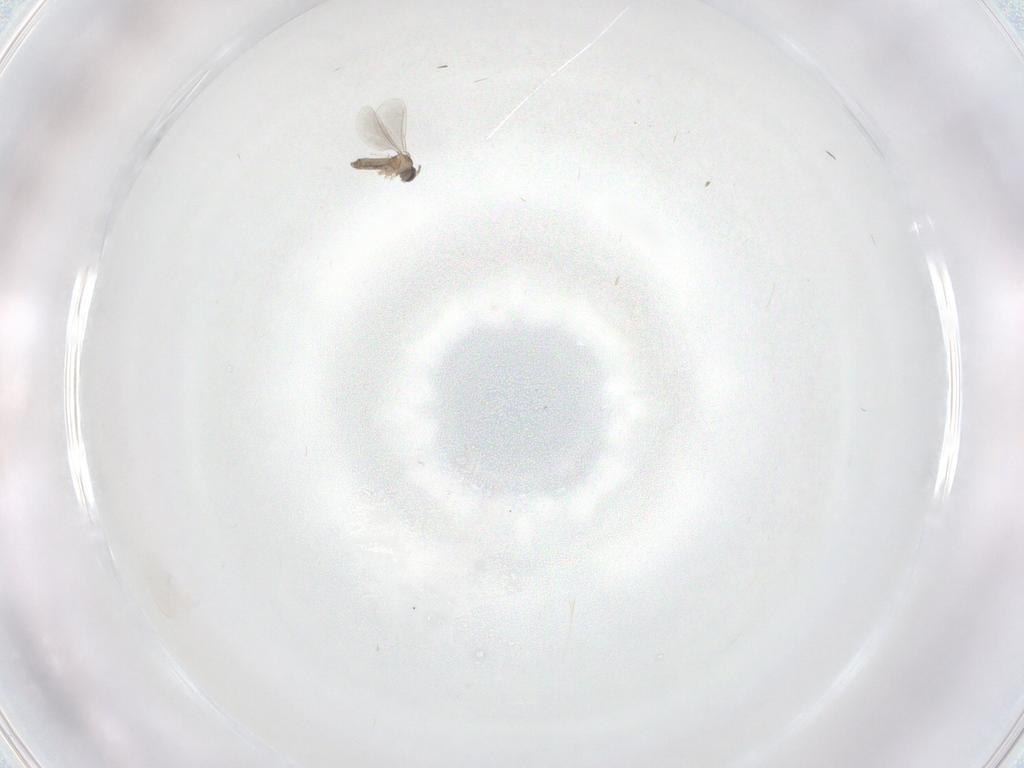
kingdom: Animalia
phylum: Arthropoda
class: Insecta
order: Diptera
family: Cecidomyiidae
